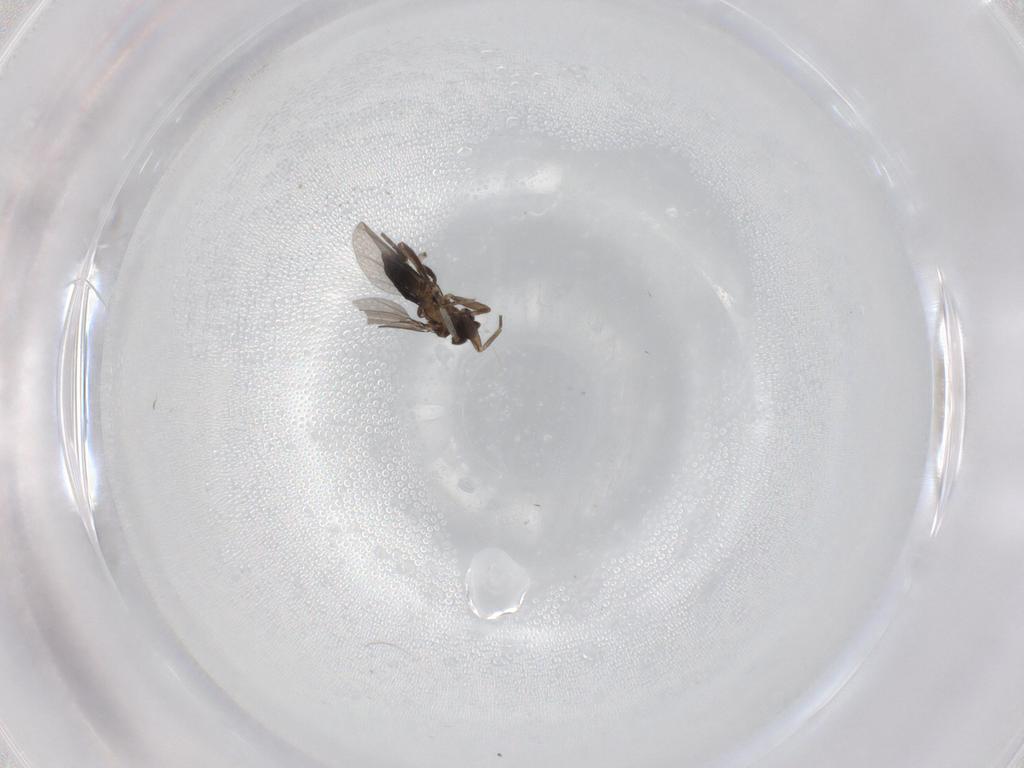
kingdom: Animalia
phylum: Arthropoda
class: Insecta
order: Diptera
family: Phoridae
